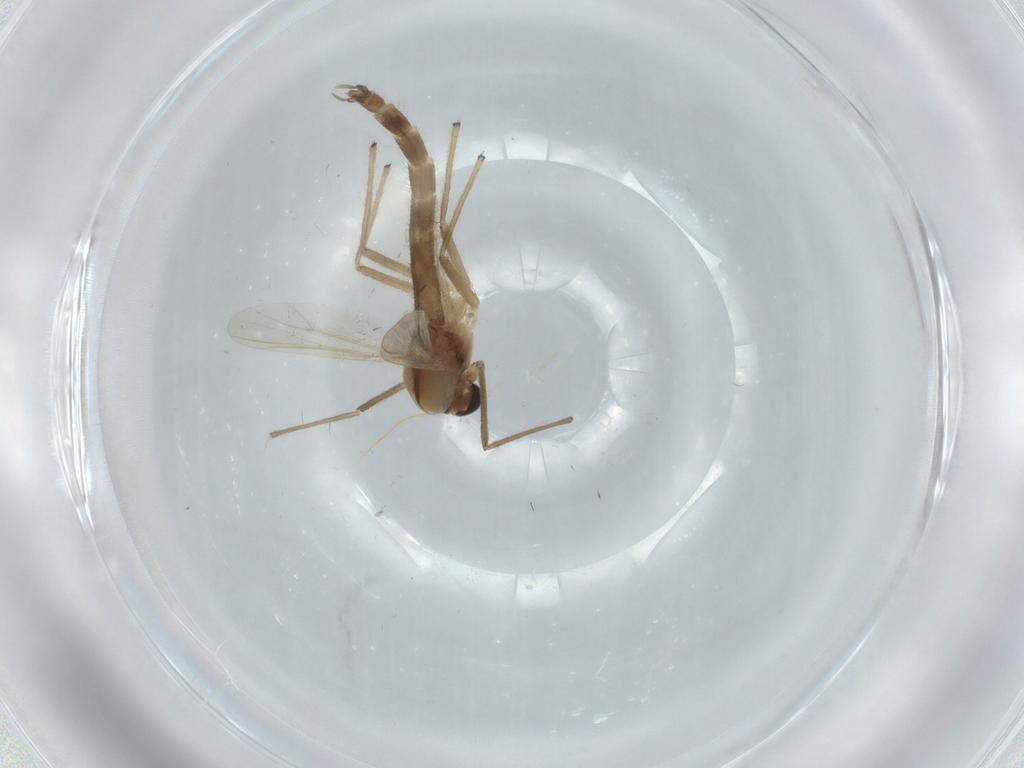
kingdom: Animalia
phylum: Arthropoda
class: Insecta
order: Diptera
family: Chironomidae
